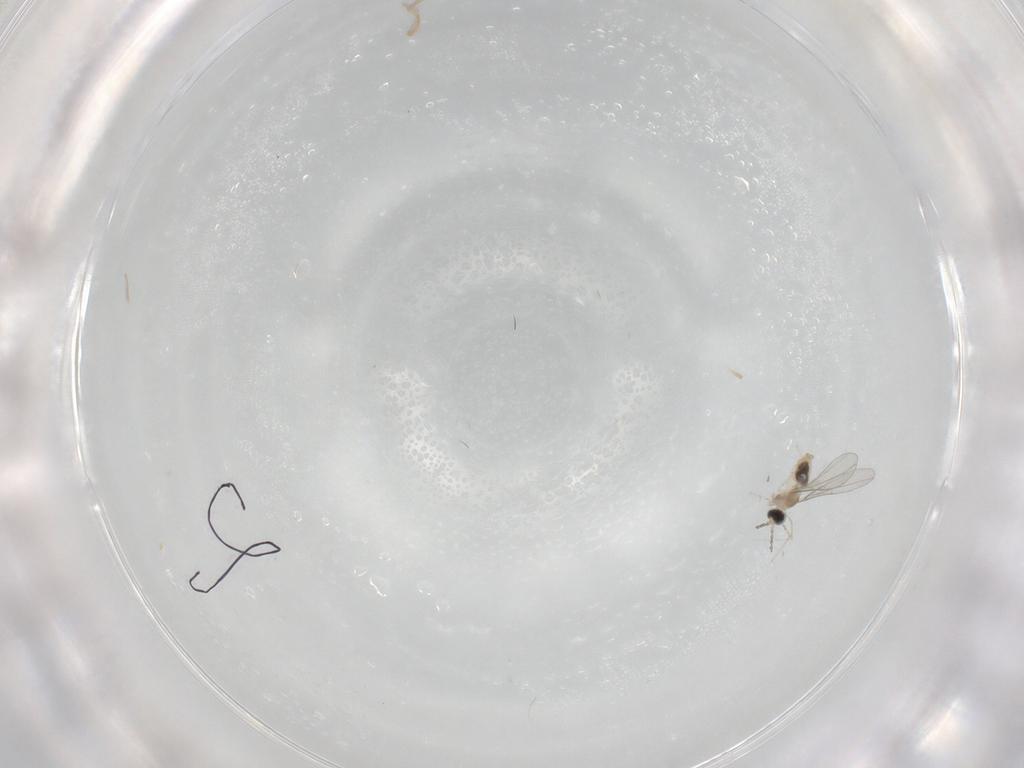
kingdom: Animalia
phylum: Arthropoda
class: Insecta
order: Diptera
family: Cecidomyiidae
